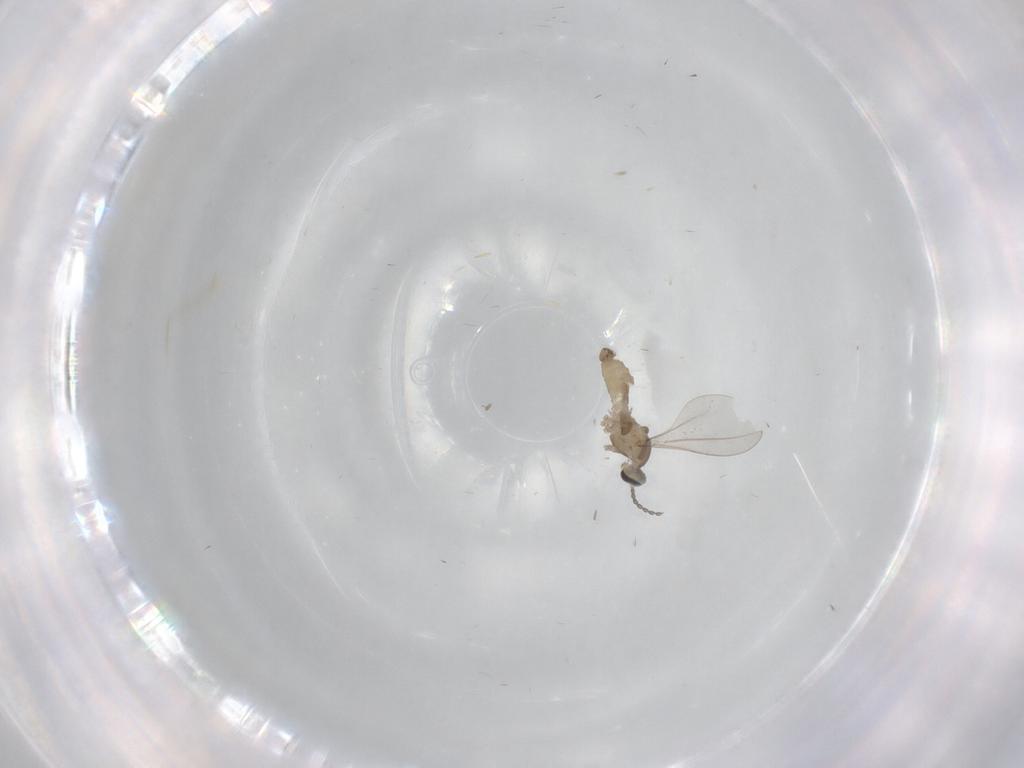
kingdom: Animalia
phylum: Arthropoda
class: Insecta
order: Diptera
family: Cecidomyiidae
